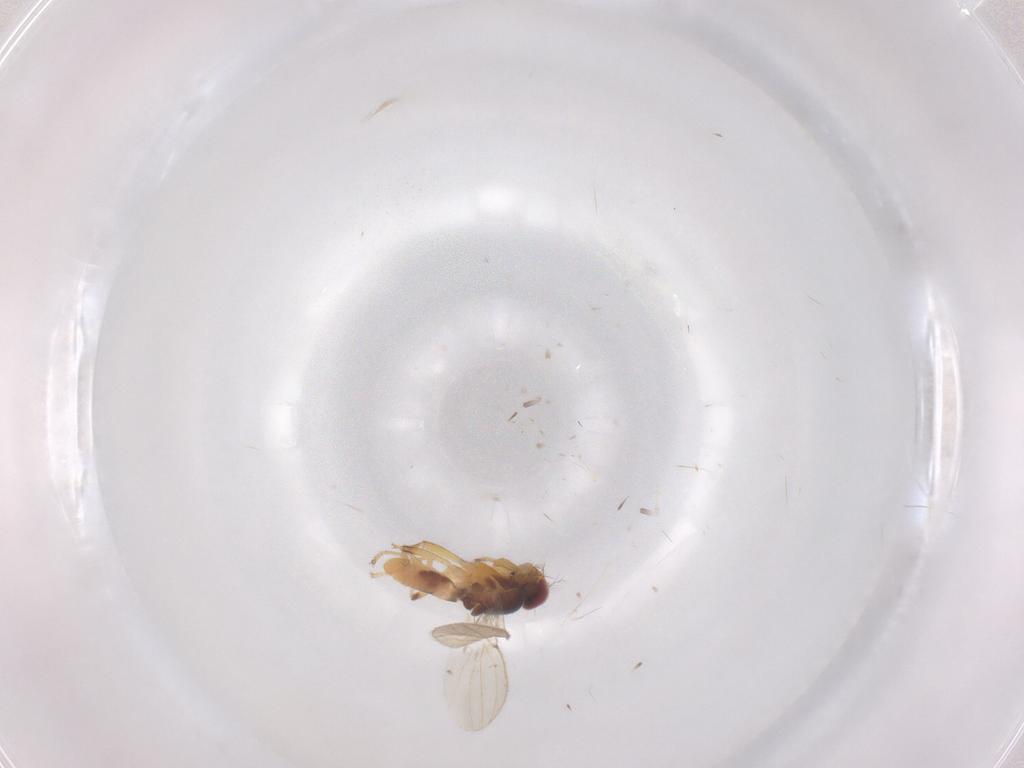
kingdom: Animalia
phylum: Arthropoda
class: Insecta
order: Diptera
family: Periscelididae
